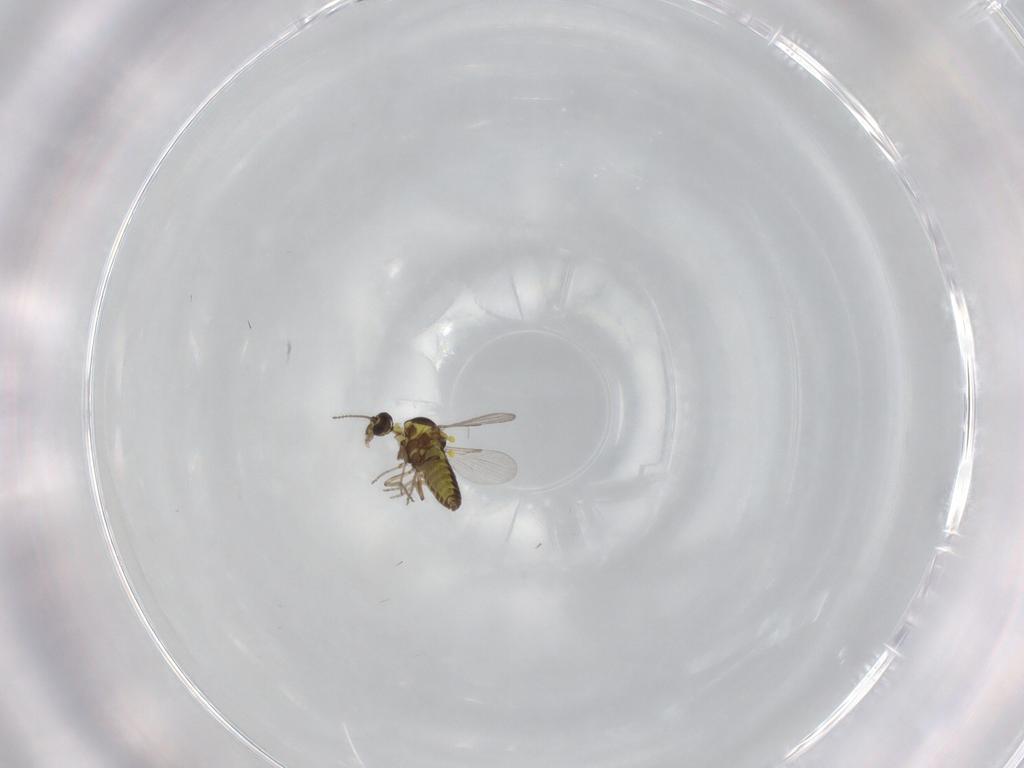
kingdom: Animalia
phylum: Arthropoda
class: Insecta
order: Diptera
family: Ceratopogonidae
